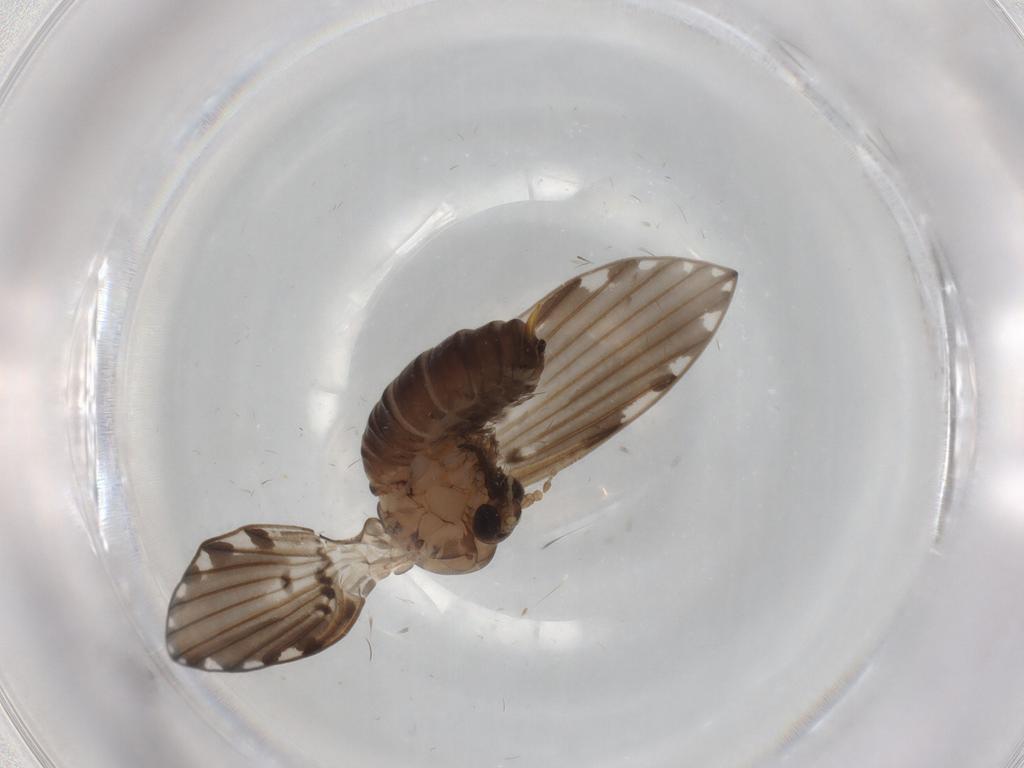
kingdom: Animalia
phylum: Arthropoda
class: Insecta
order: Diptera
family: Psychodidae
